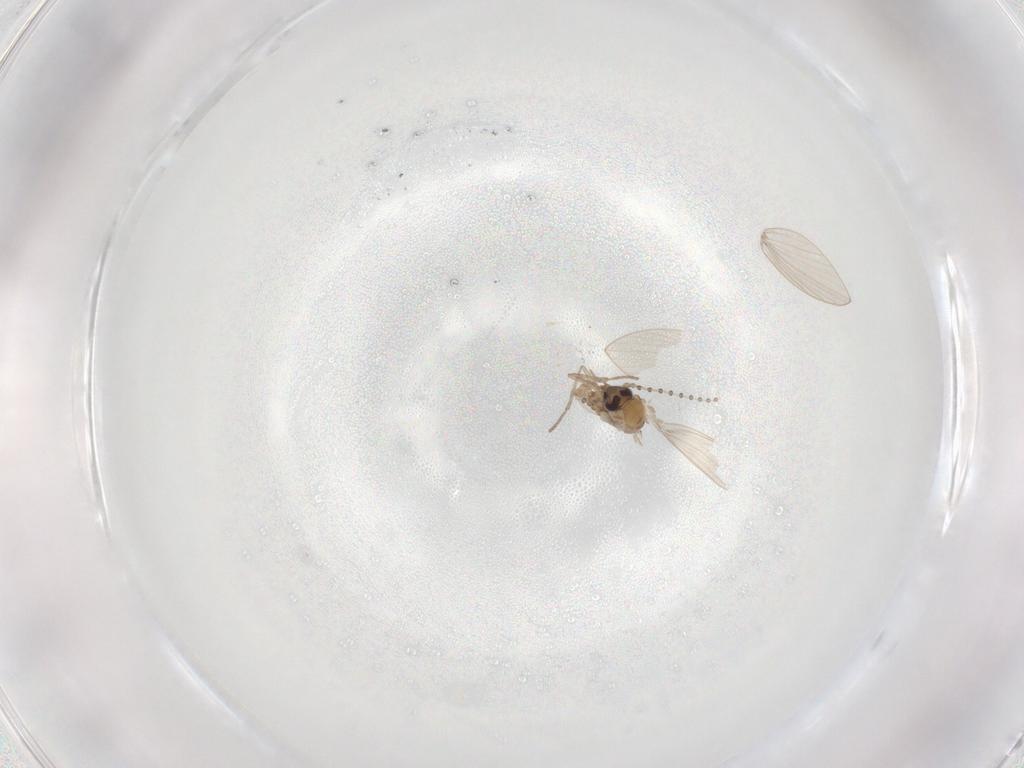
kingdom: Animalia
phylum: Arthropoda
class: Insecta
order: Diptera
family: Psychodidae
